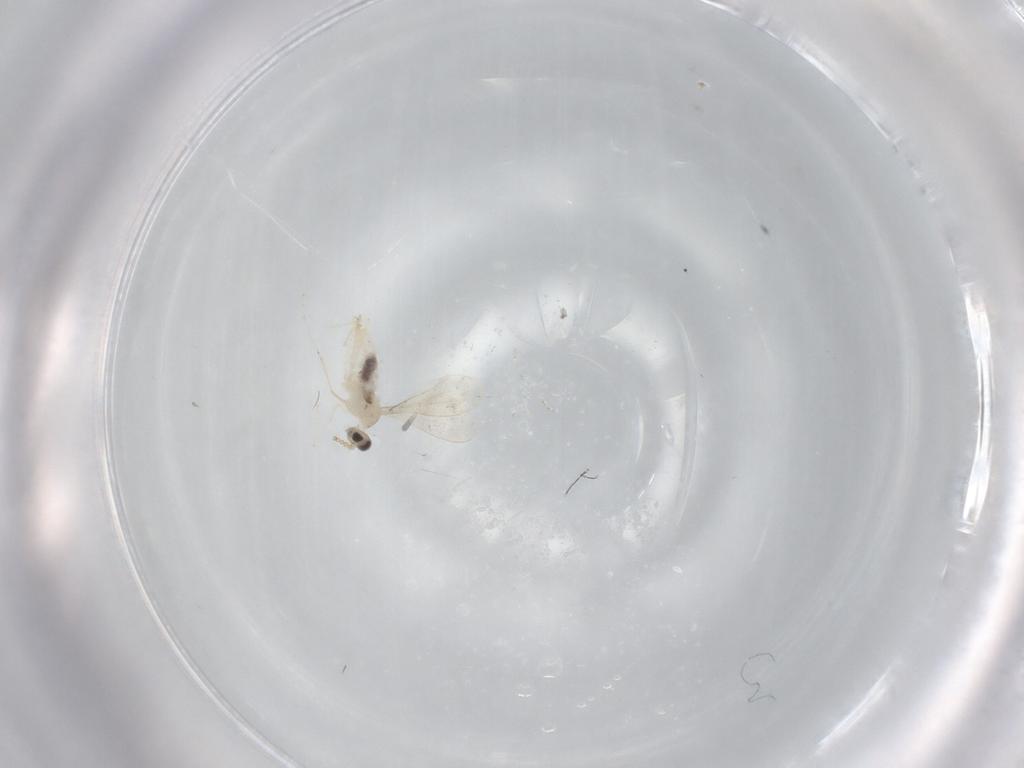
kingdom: Animalia
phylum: Arthropoda
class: Insecta
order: Diptera
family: Cecidomyiidae
